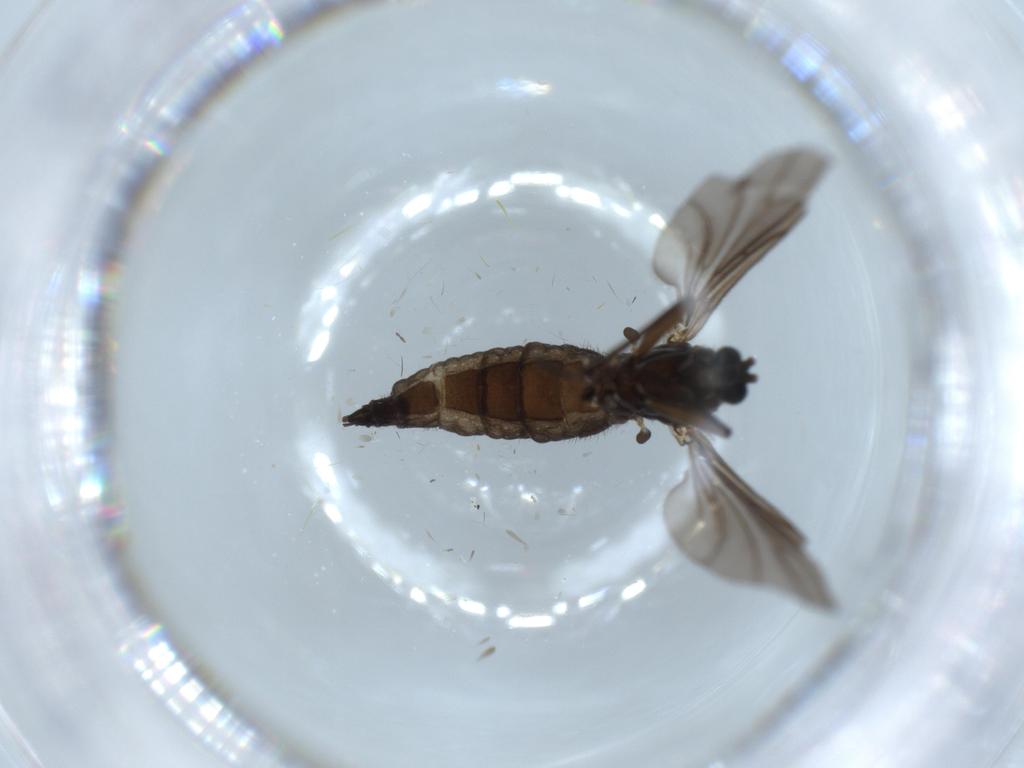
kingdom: Animalia
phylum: Arthropoda
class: Insecta
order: Diptera
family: Sciaridae
